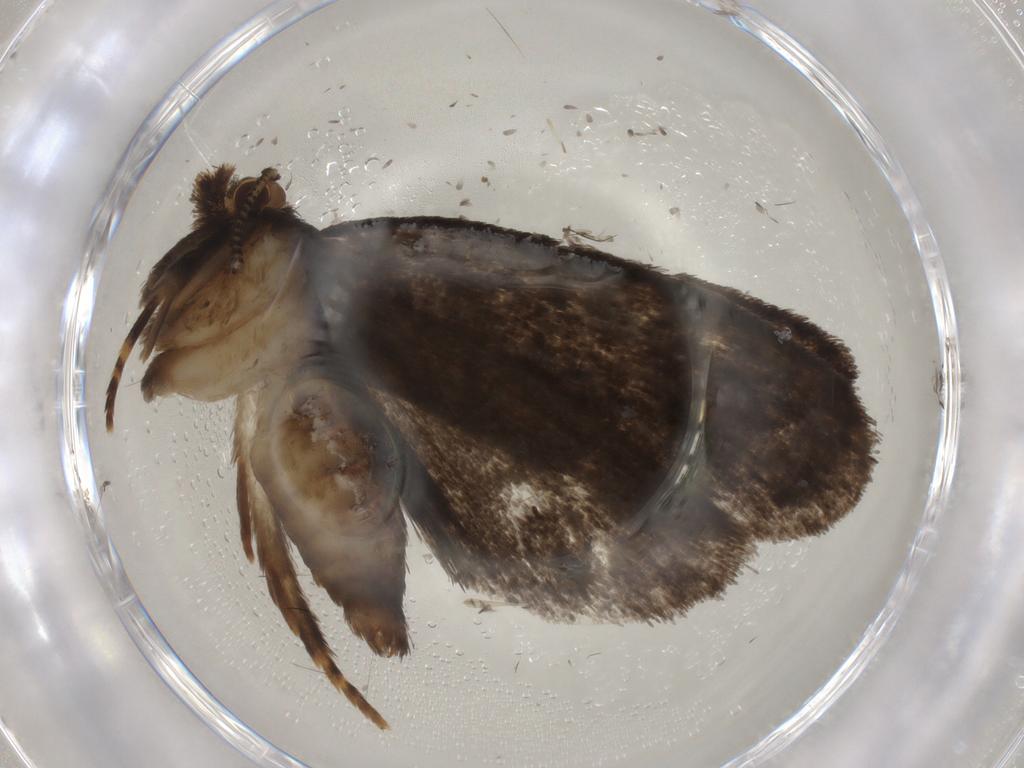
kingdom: Animalia
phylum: Arthropoda
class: Insecta
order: Lepidoptera
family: Tineidae
